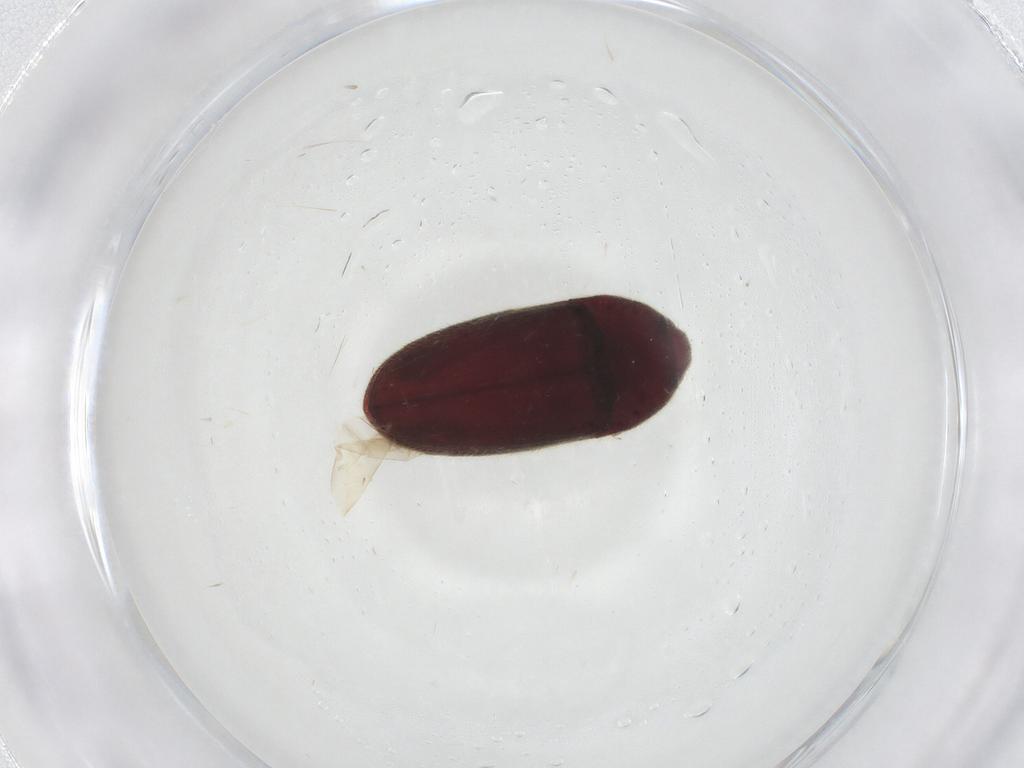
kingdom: Animalia
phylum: Arthropoda
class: Insecta
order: Coleoptera
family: Throscidae
